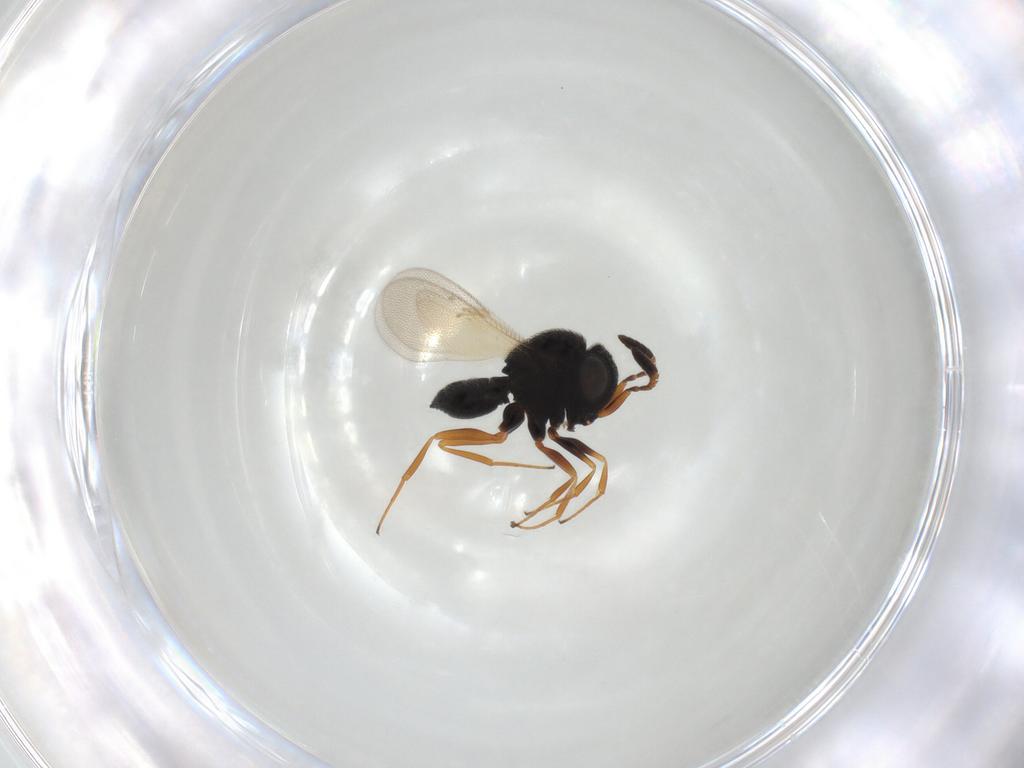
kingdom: Animalia
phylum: Arthropoda
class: Insecta
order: Hymenoptera
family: Scelionidae
